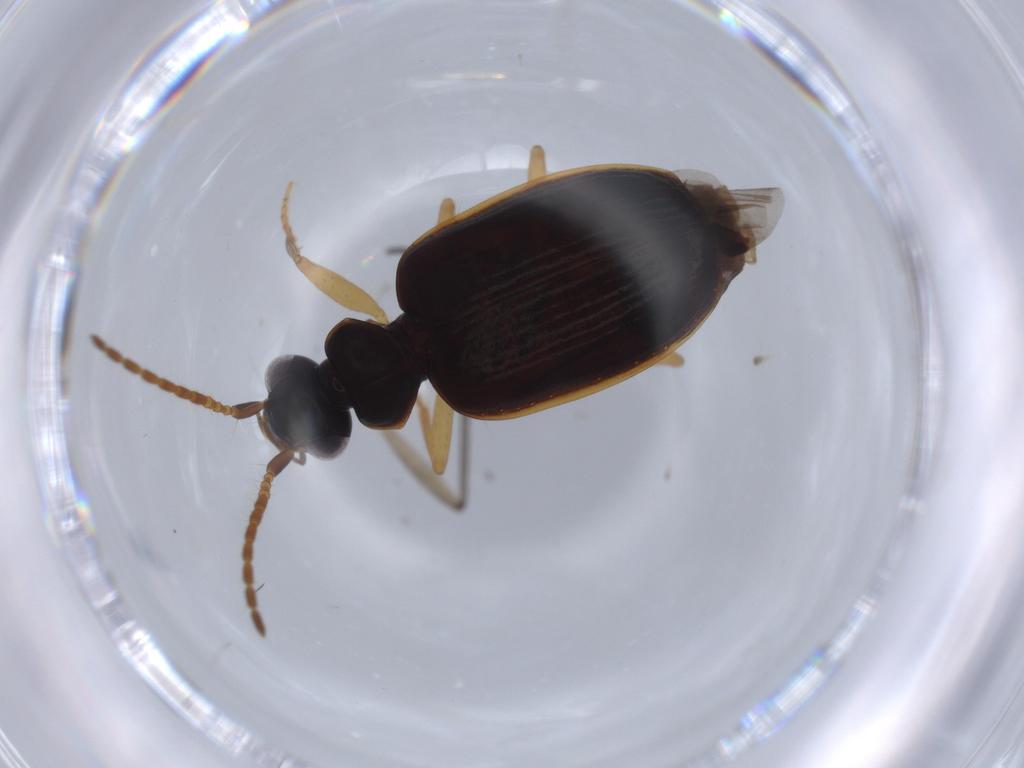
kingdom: Animalia
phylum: Arthropoda
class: Insecta
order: Coleoptera
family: Carabidae
